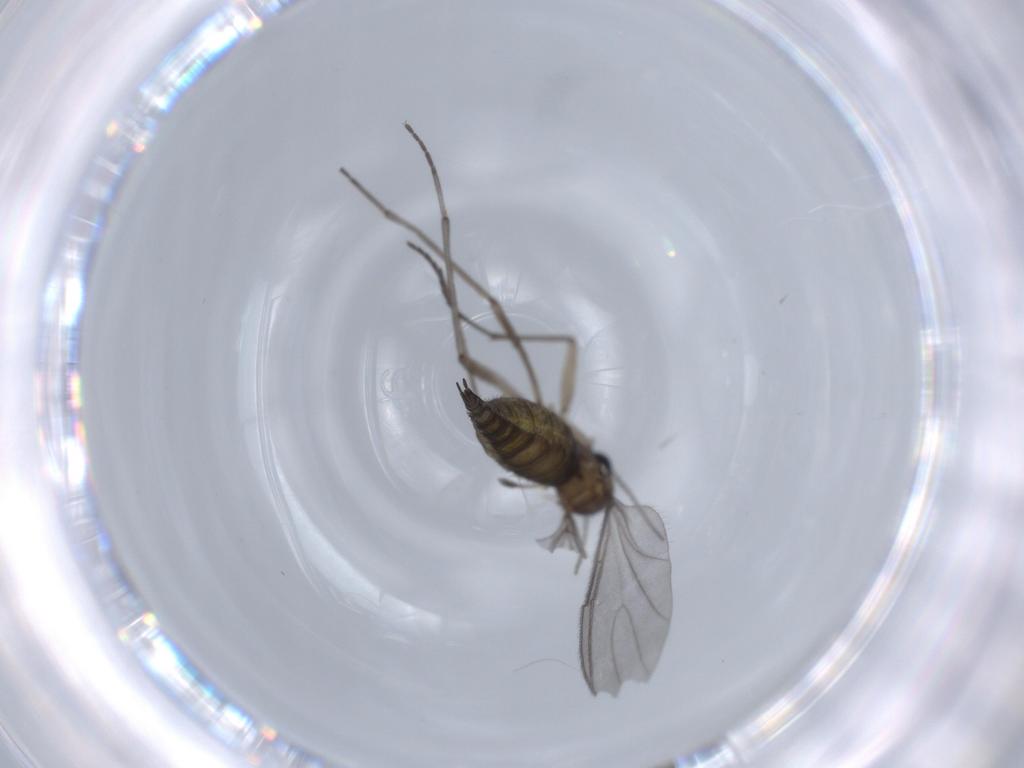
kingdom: Animalia
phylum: Arthropoda
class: Insecta
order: Diptera
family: Sciaridae
